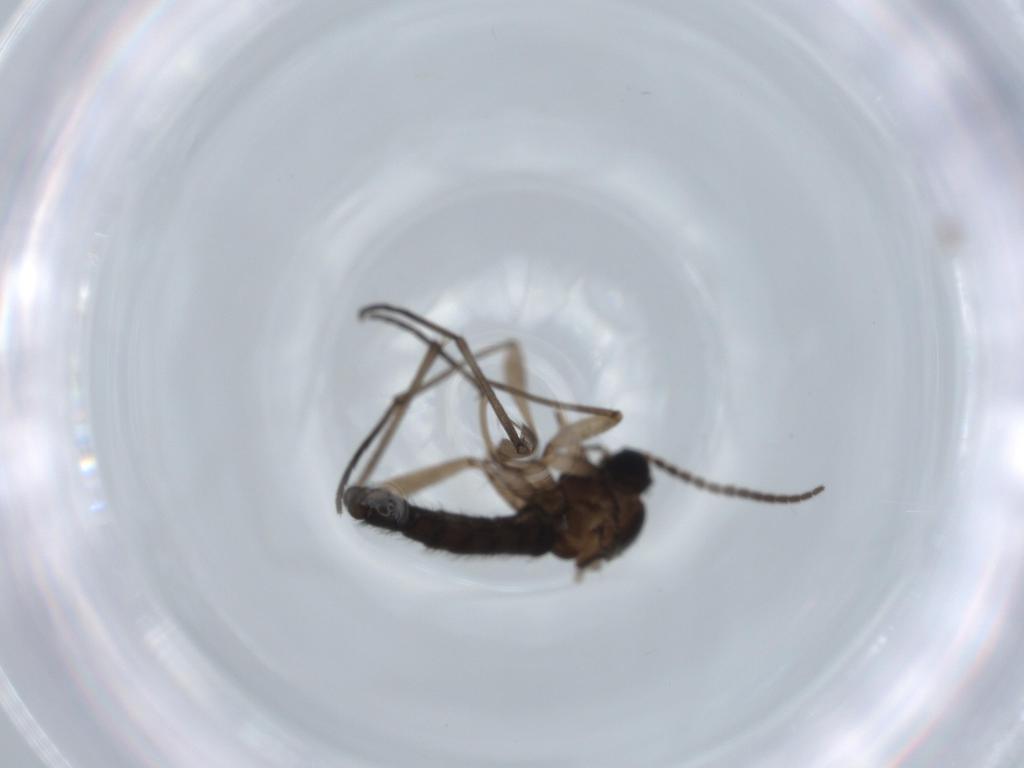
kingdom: Animalia
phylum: Arthropoda
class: Insecta
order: Diptera
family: Sciaridae
